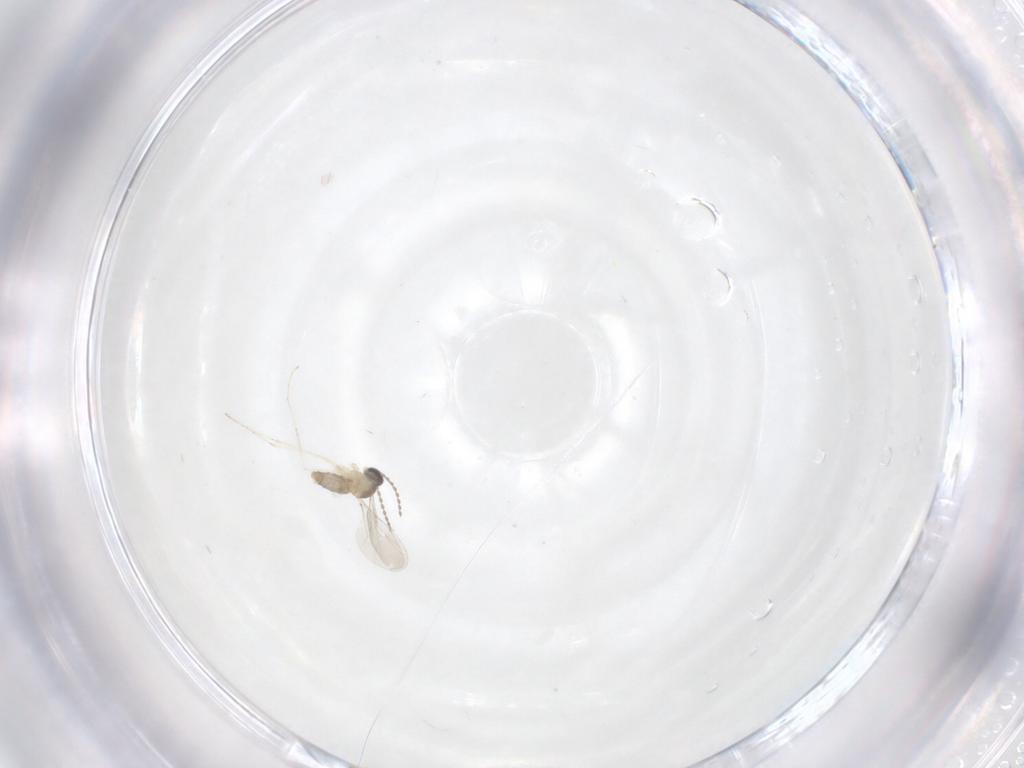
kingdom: Animalia
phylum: Arthropoda
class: Insecta
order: Diptera
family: Cecidomyiidae
